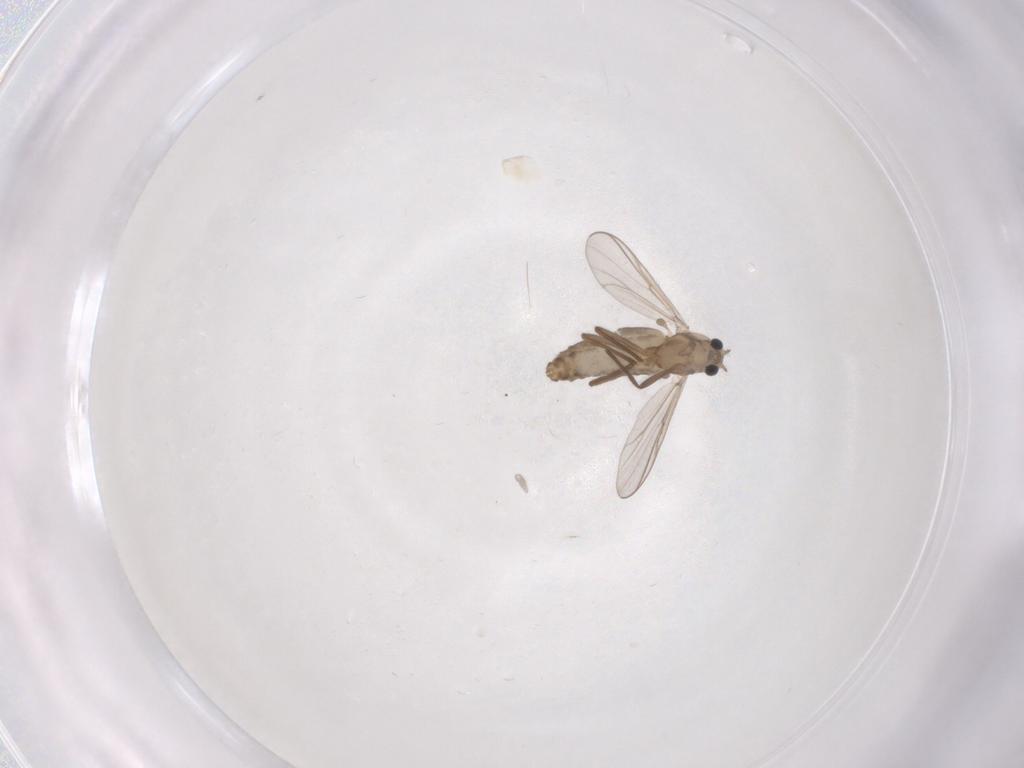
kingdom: Animalia
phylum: Arthropoda
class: Insecta
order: Diptera
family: Chironomidae
